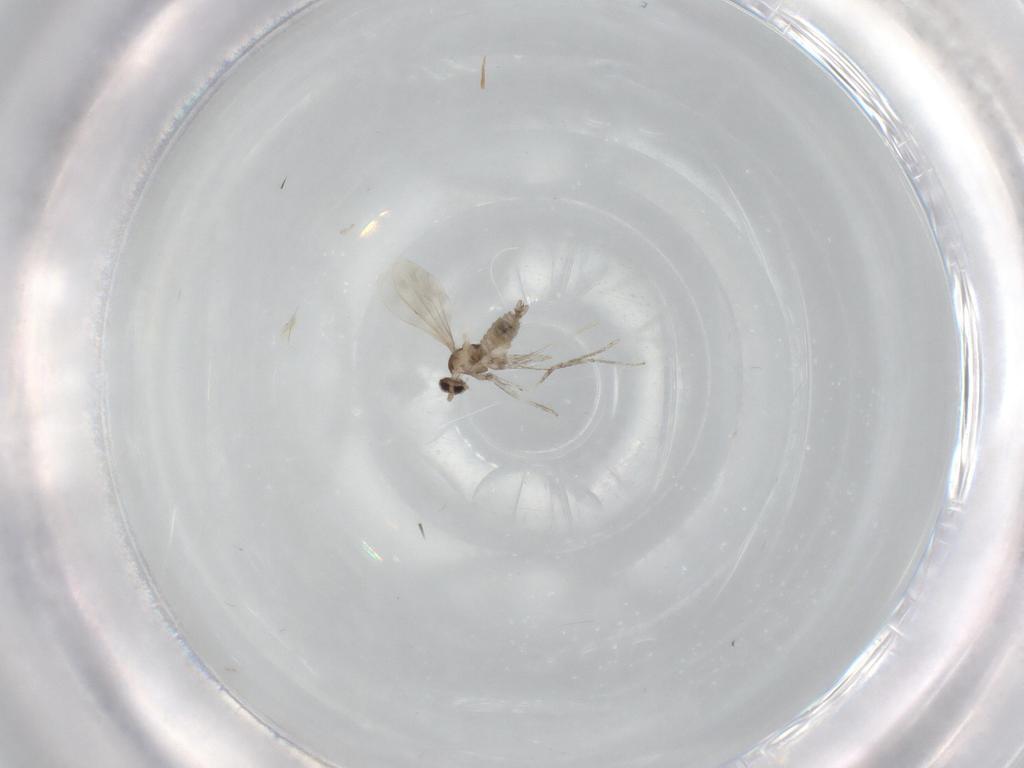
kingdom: Animalia
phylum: Arthropoda
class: Insecta
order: Diptera
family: Cecidomyiidae
